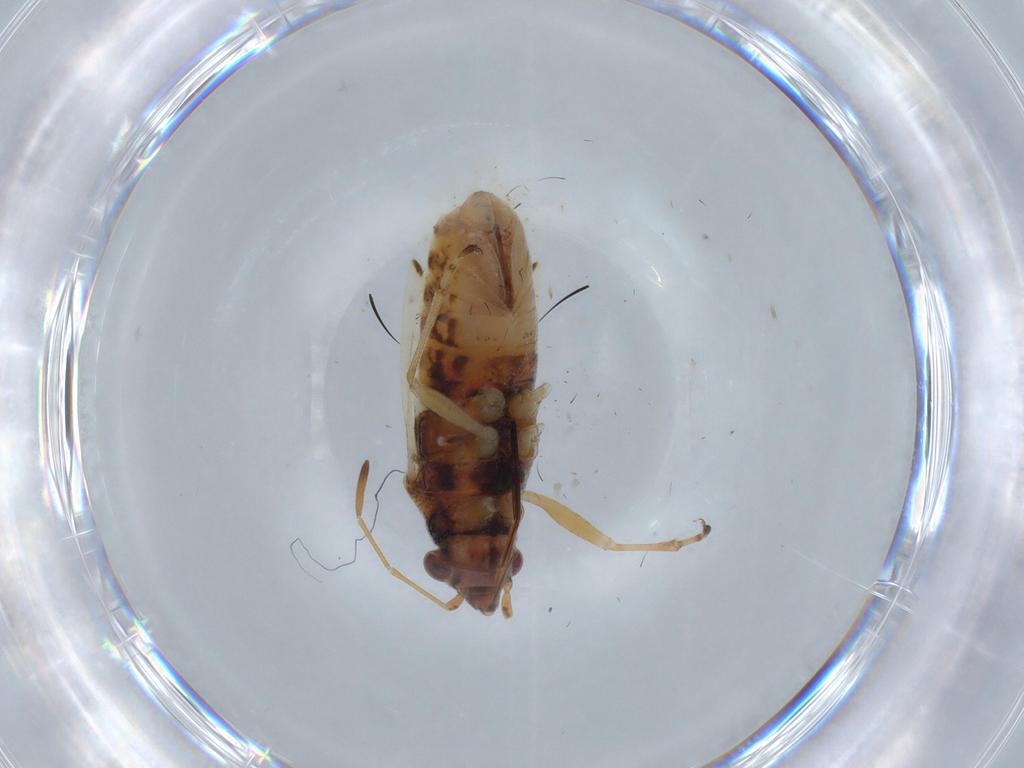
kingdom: Animalia
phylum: Arthropoda
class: Insecta
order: Hemiptera
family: Lygaeidae
